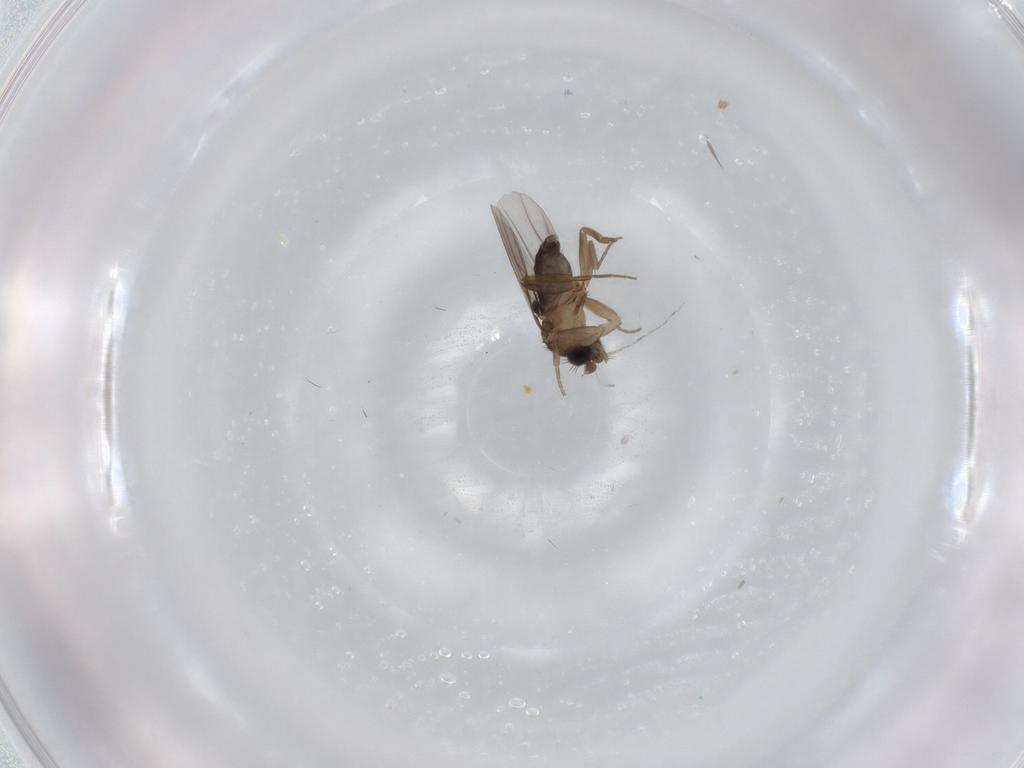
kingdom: Animalia
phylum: Arthropoda
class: Insecta
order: Diptera
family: Phoridae
